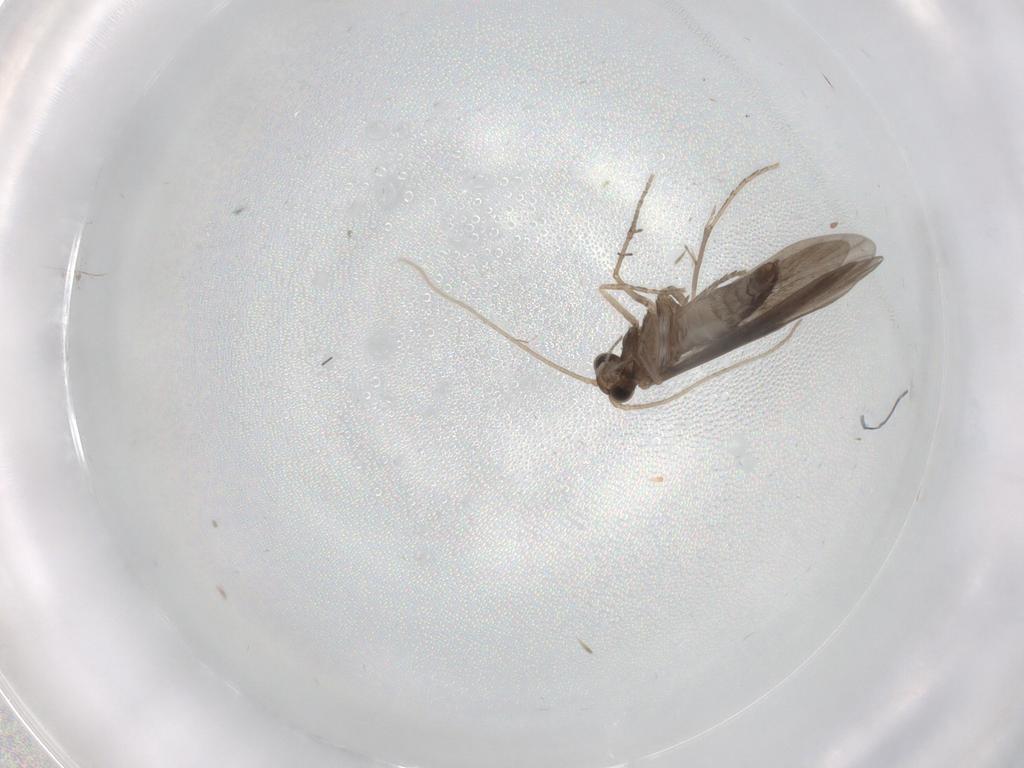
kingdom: Animalia
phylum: Arthropoda
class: Insecta
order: Trichoptera
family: Xiphocentronidae
